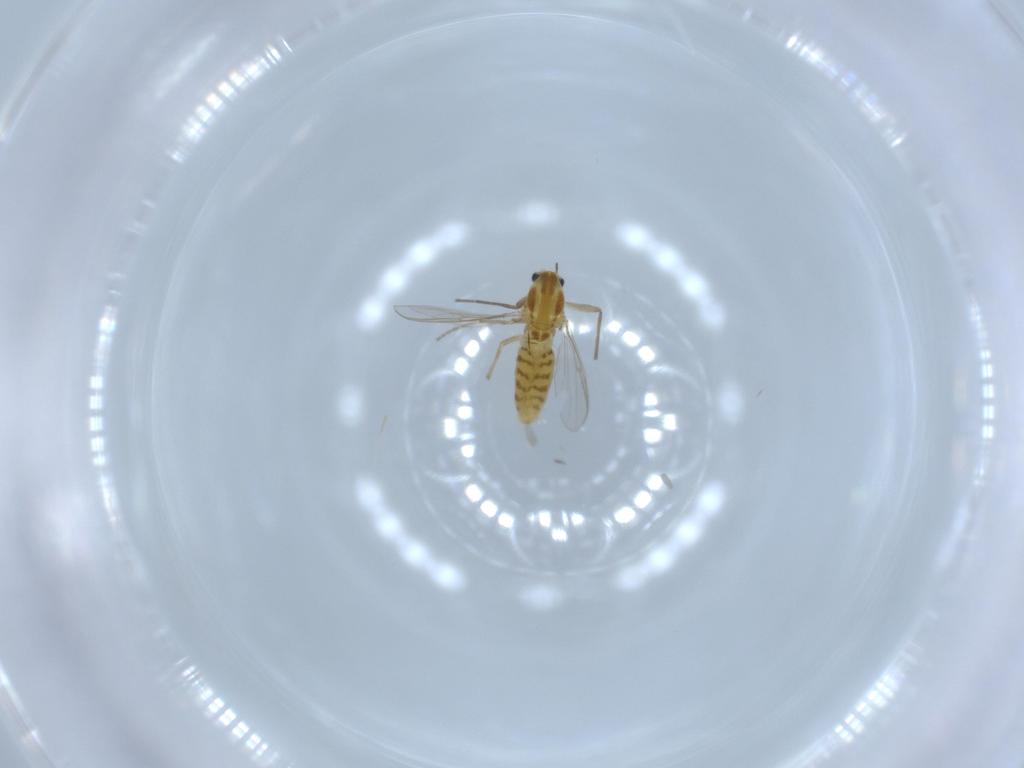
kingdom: Animalia
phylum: Arthropoda
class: Insecta
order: Diptera
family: Chironomidae
